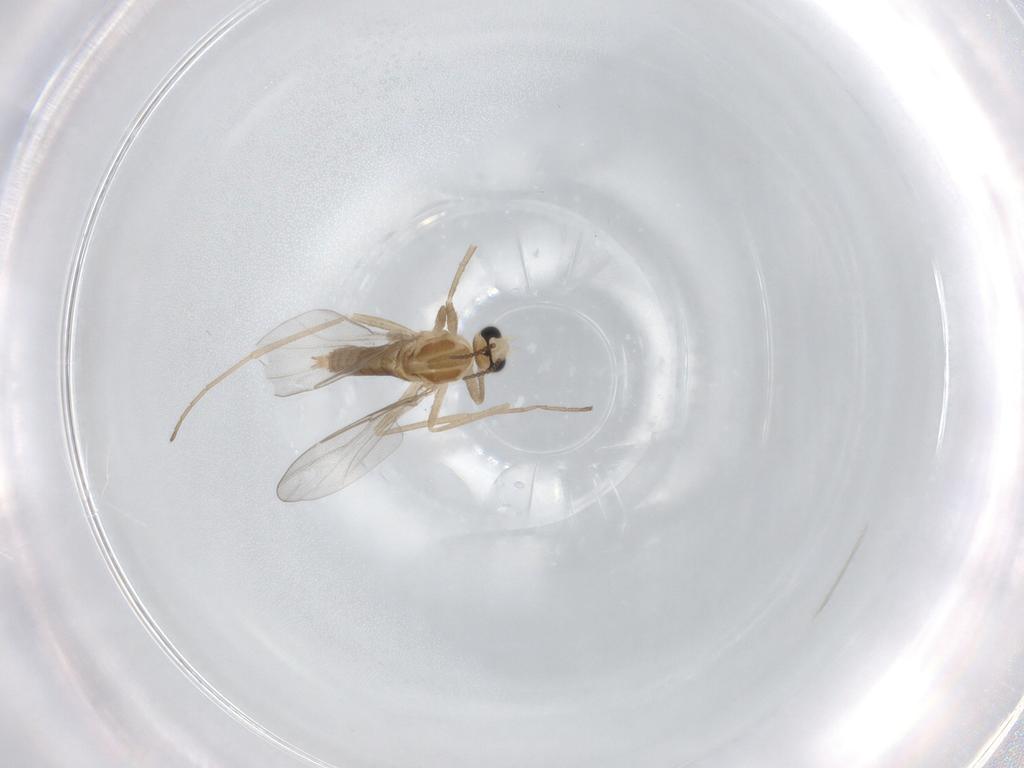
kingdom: Animalia
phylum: Arthropoda
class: Insecta
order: Diptera
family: Cecidomyiidae
